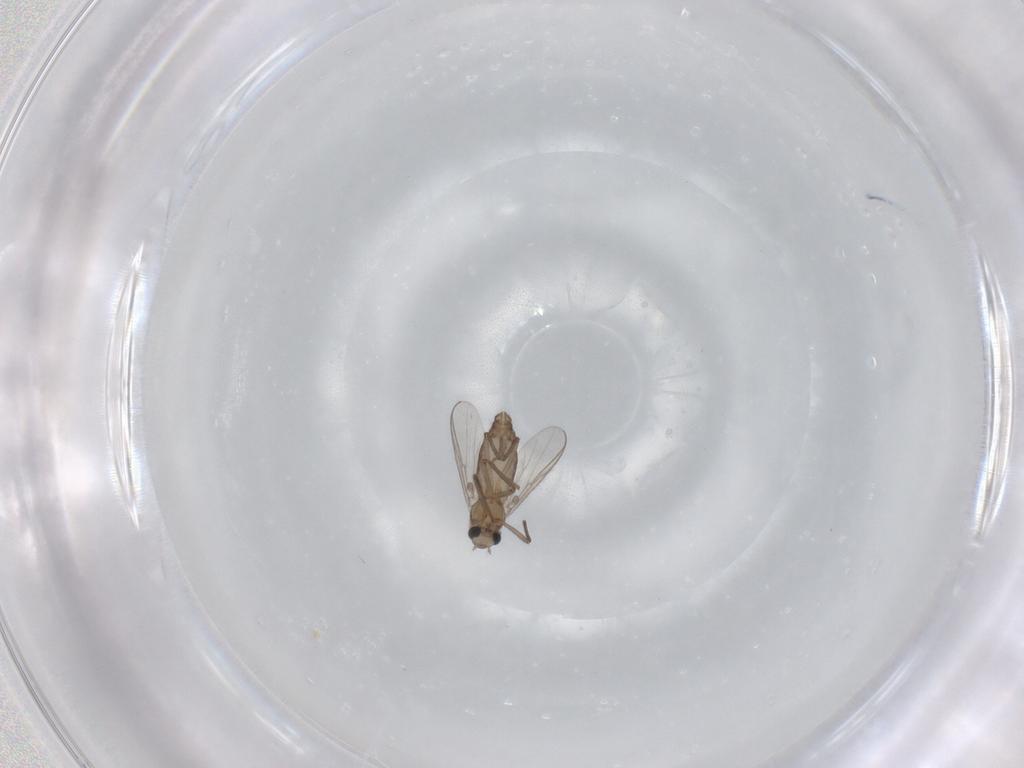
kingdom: Animalia
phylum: Arthropoda
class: Insecta
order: Diptera
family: Chironomidae
